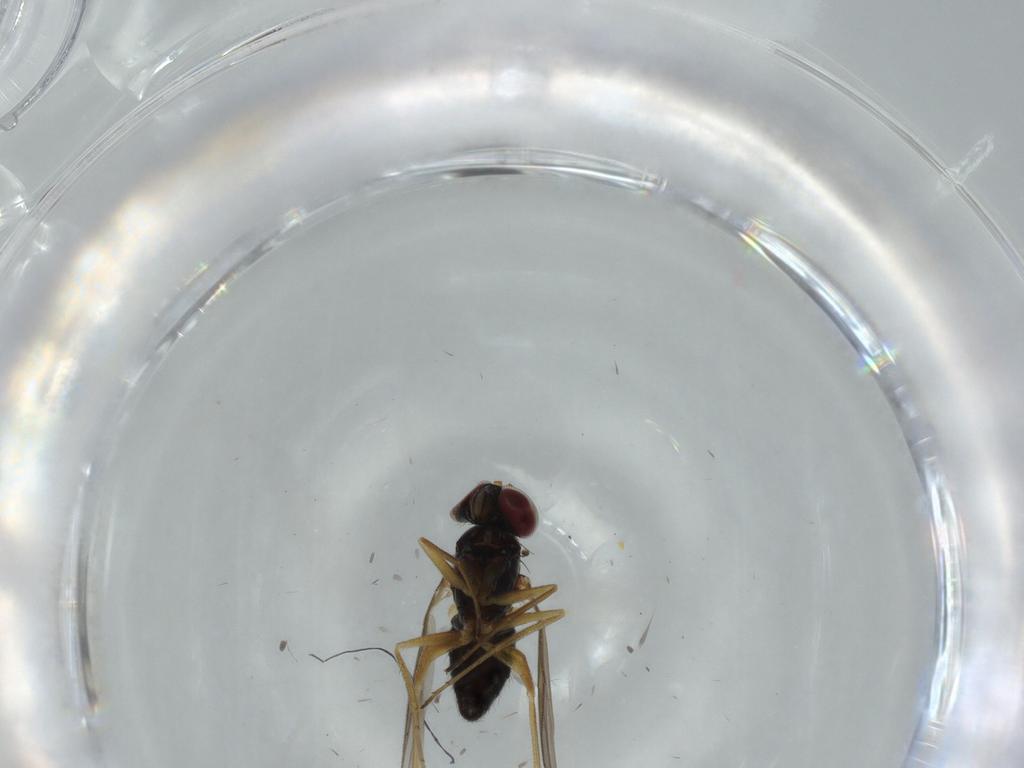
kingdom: Animalia
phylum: Arthropoda
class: Insecta
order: Diptera
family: Dolichopodidae
